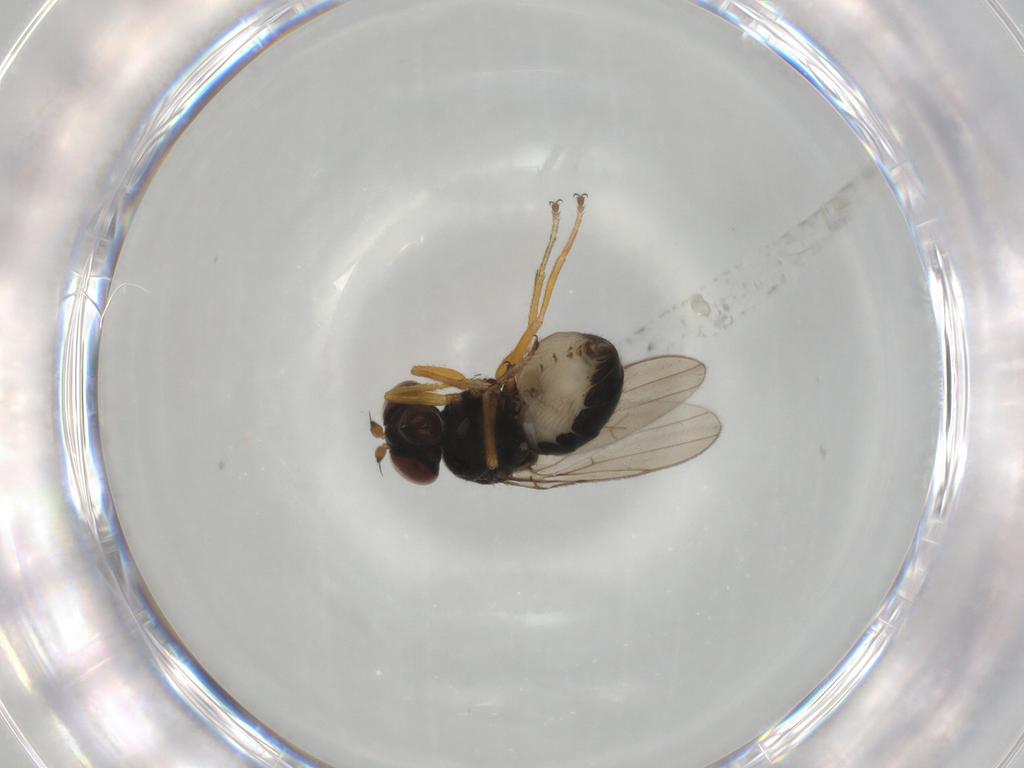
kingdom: Animalia
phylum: Arthropoda
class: Insecta
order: Diptera
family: Ephydridae
